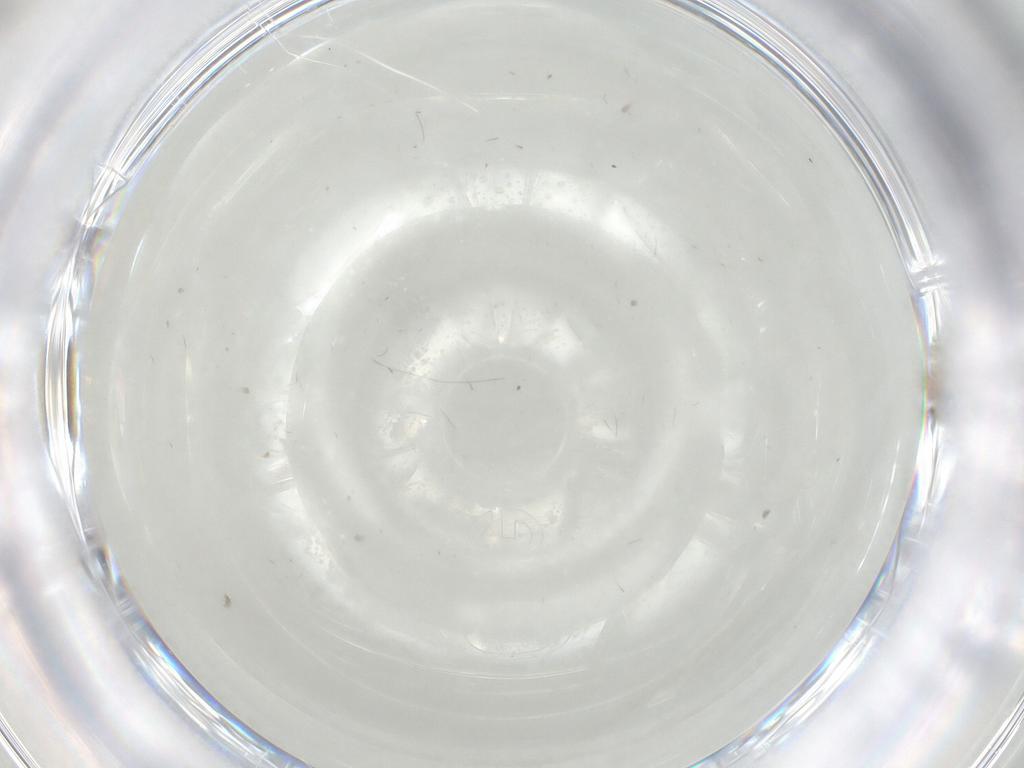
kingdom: Animalia
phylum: Arthropoda
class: Insecta
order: Diptera
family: Cecidomyiidae
